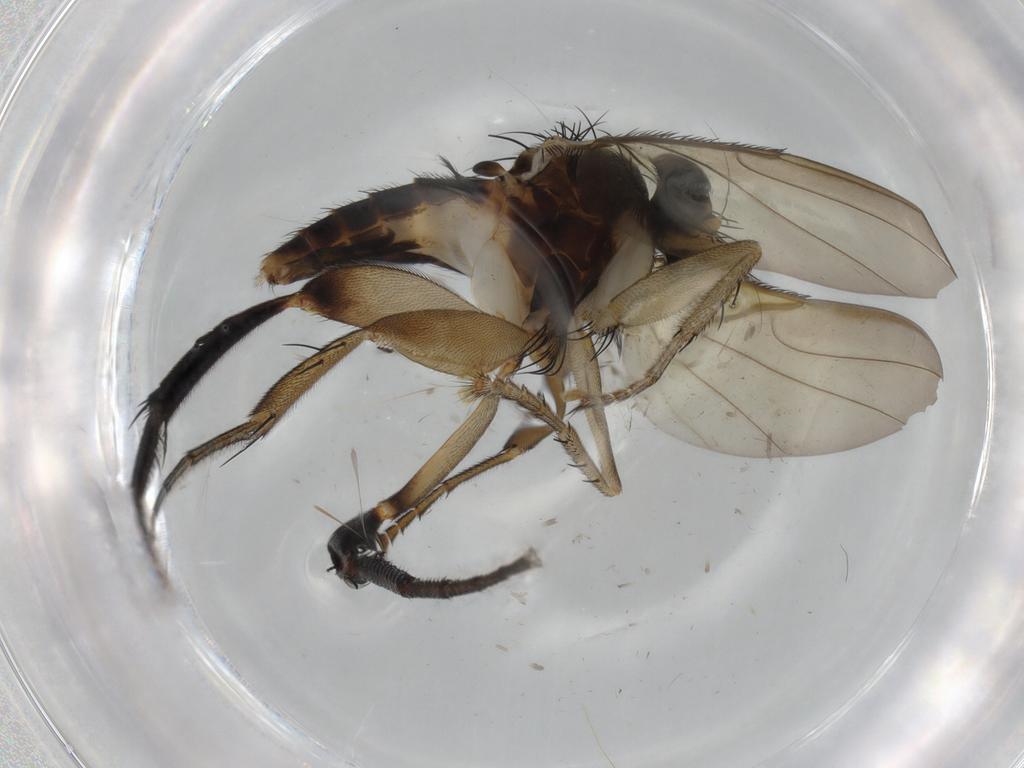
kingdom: Animalia
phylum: Arthropoda
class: Insecta
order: Diptera
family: Phoridae
